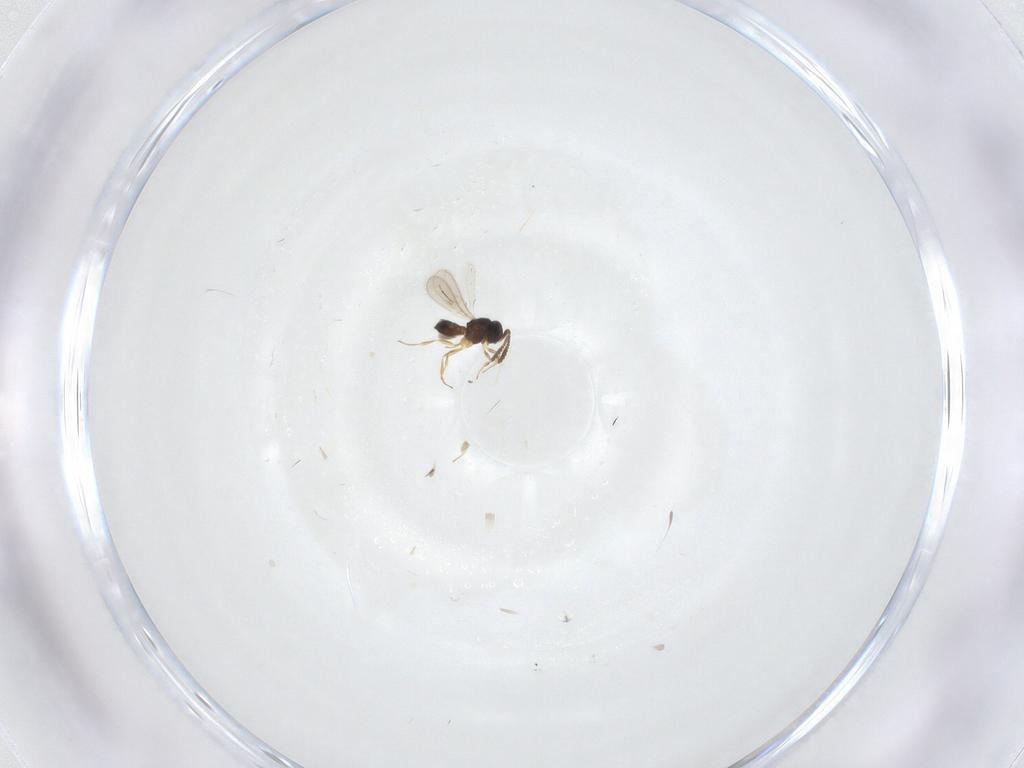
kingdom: Animalia
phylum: Arthropoda
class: Insecta
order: Hymenoptera
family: Scelionidae
